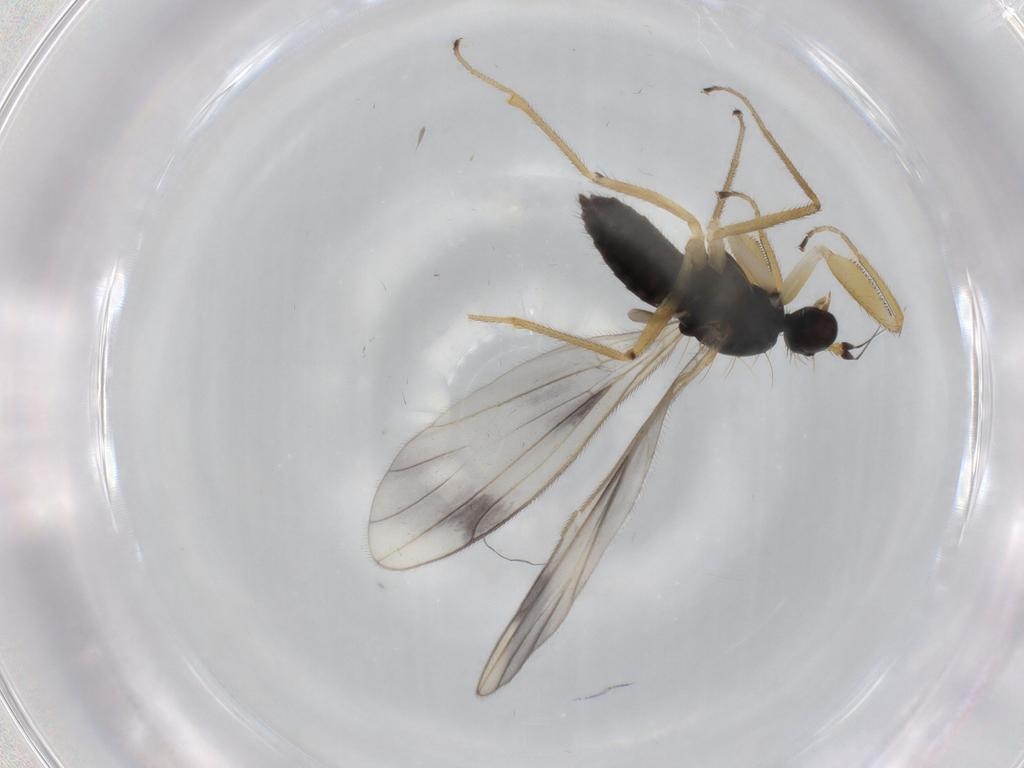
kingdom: Animalia
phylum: Arthropoda
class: Insecta
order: Diptera
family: Empididae
